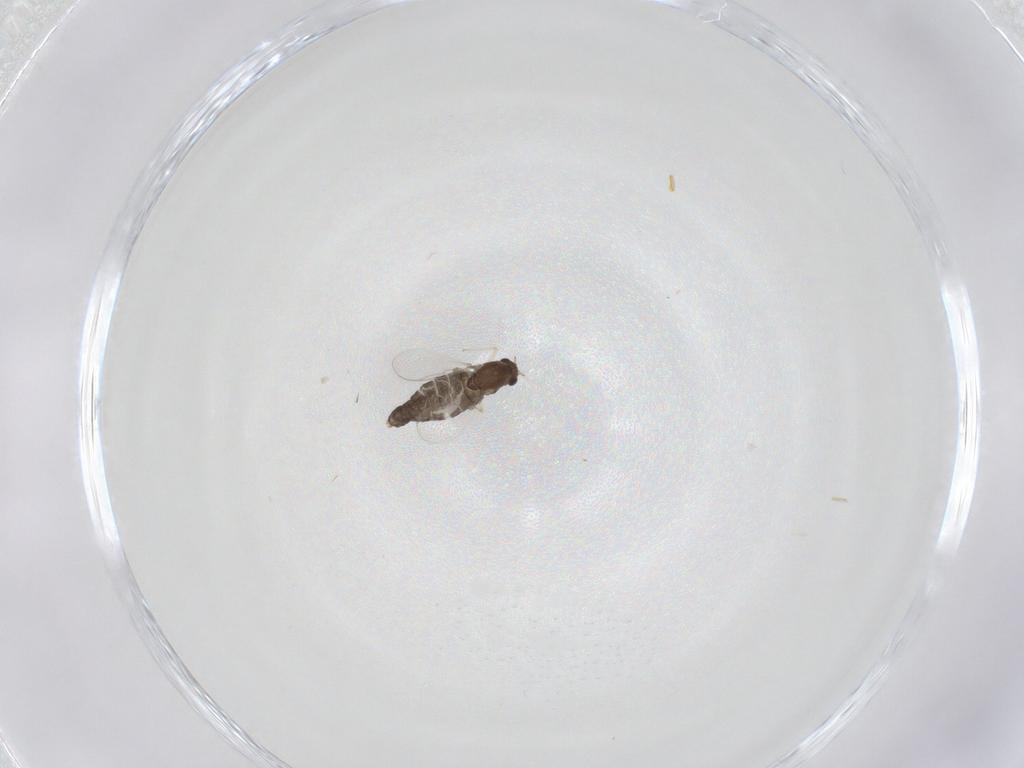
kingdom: Animalia
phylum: Arthropoda
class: Insecta
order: Diptera
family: Chironomidae
